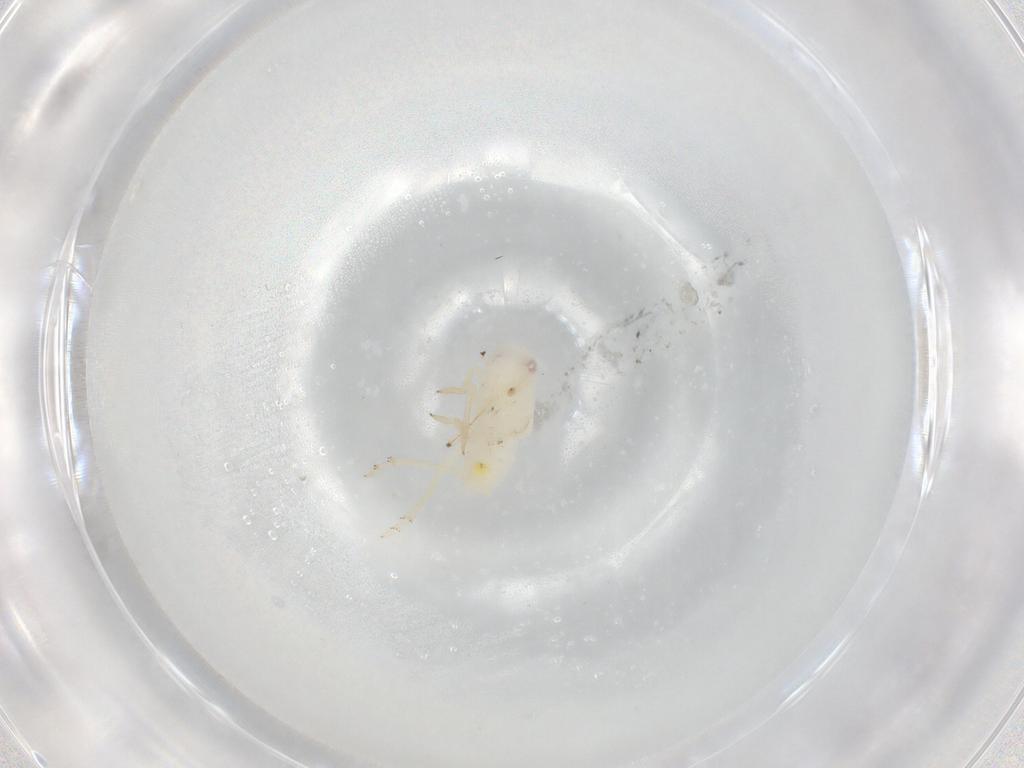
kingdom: Animalia
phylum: Arthropoda
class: Insecta
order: Hemiptera
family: Tropiduchidae
